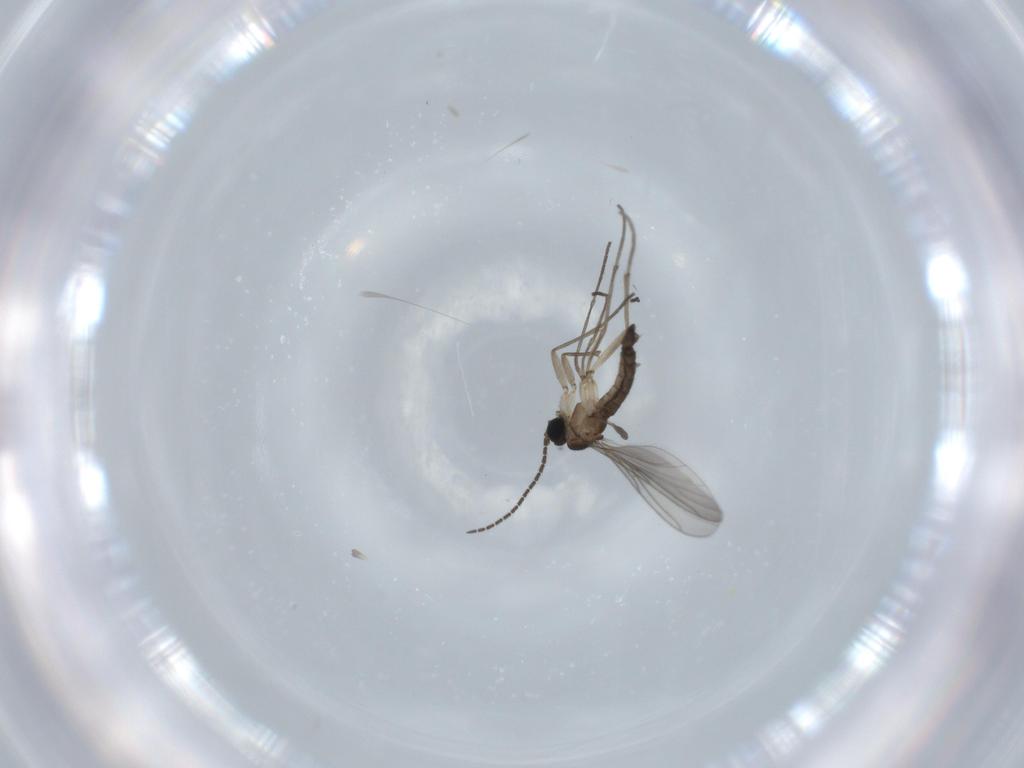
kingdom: Animalia
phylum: Arthropoda
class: Insecta
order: Diptera
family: Sciaridae
